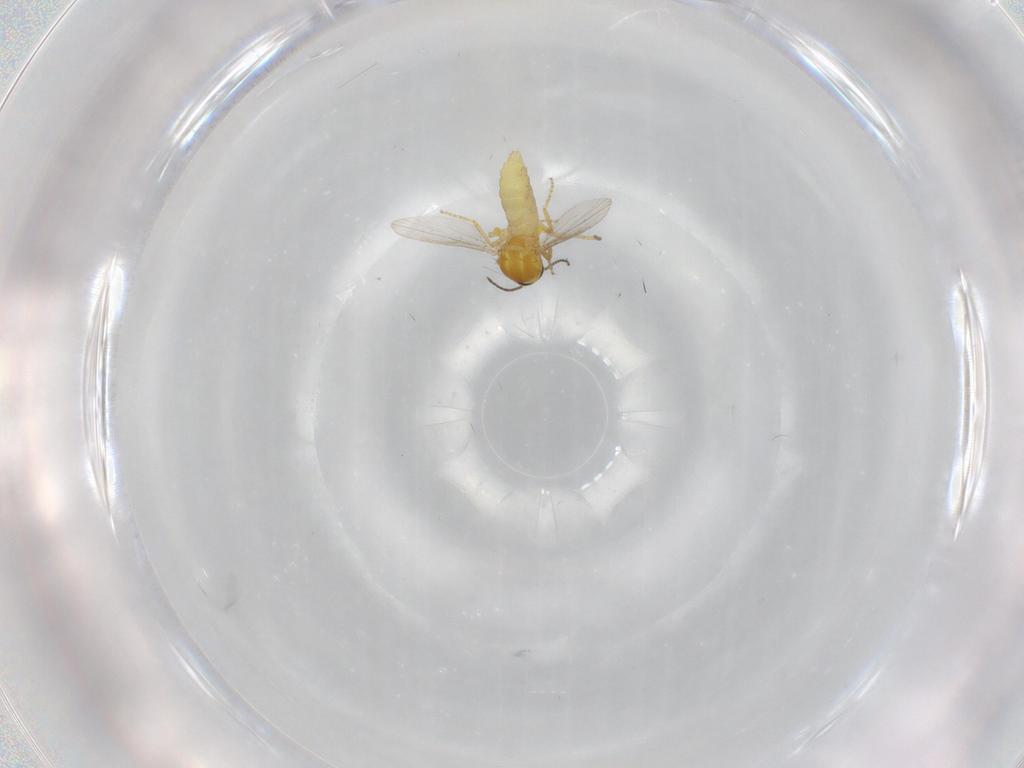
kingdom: Animalia
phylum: Arthropoda
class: Insecta
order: Diptera
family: Ceratopogonidae
